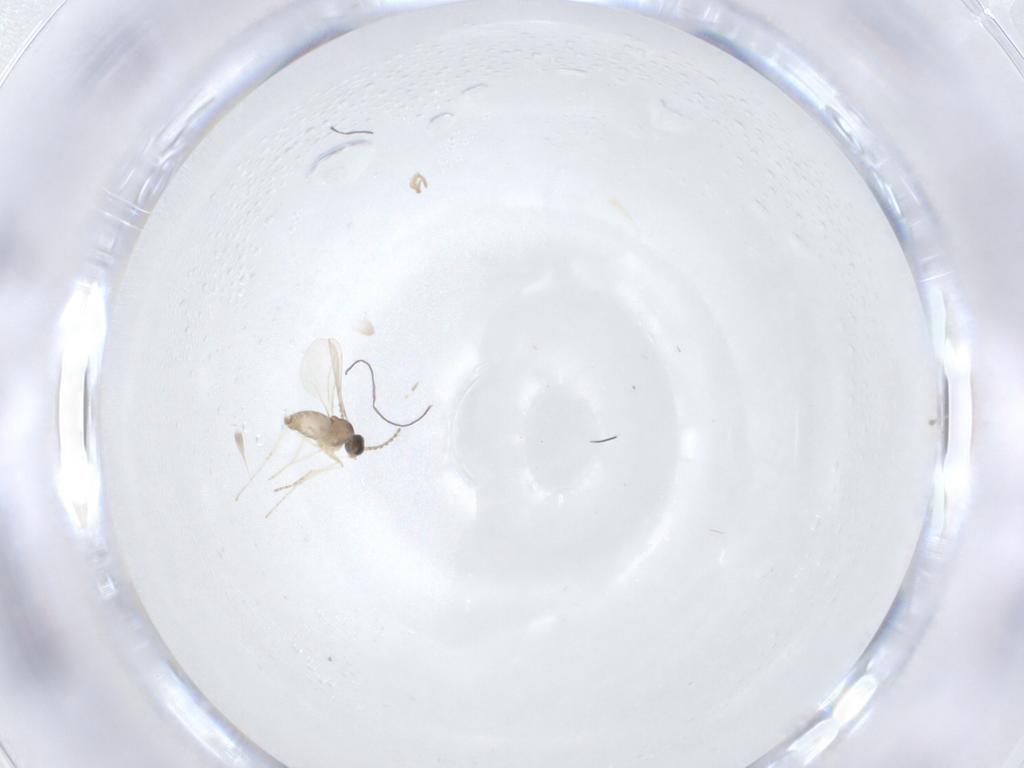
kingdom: Animalia
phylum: Arthropoda
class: Insecta
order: Diptera
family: Cecidomyiidae
